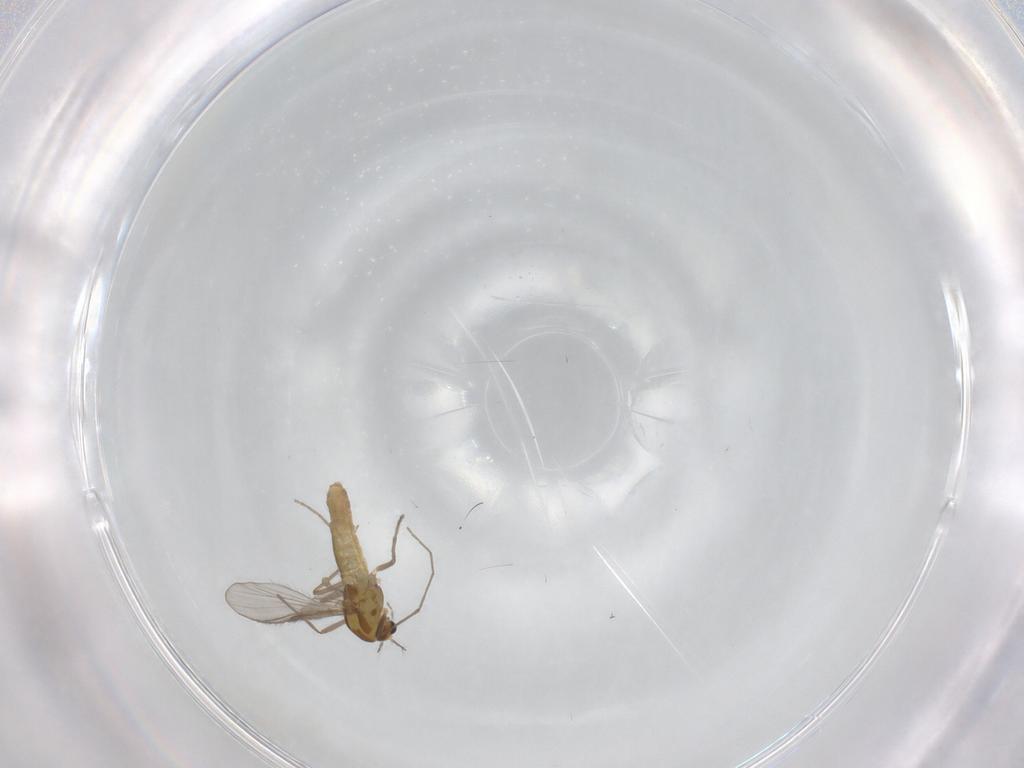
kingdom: Animalia
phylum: Arthropoda
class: Insecta
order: Diptera
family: Chironomidae
